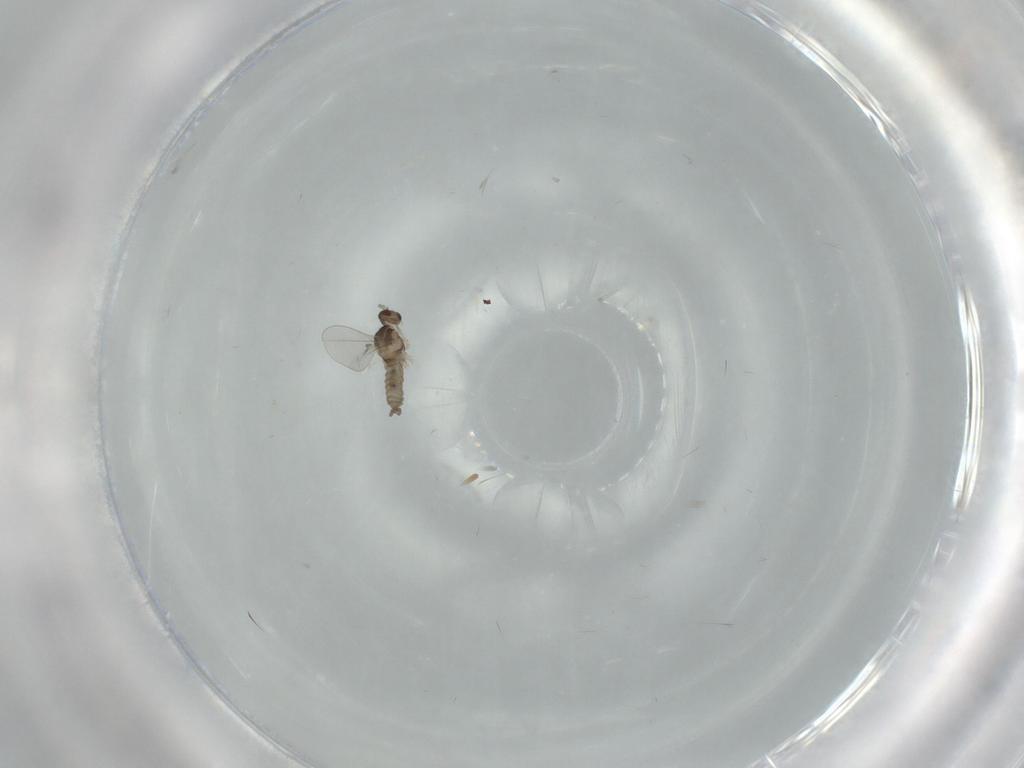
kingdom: Animalia
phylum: Arthropoda
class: Insecta
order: Diptera
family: Cecidomyiidae
